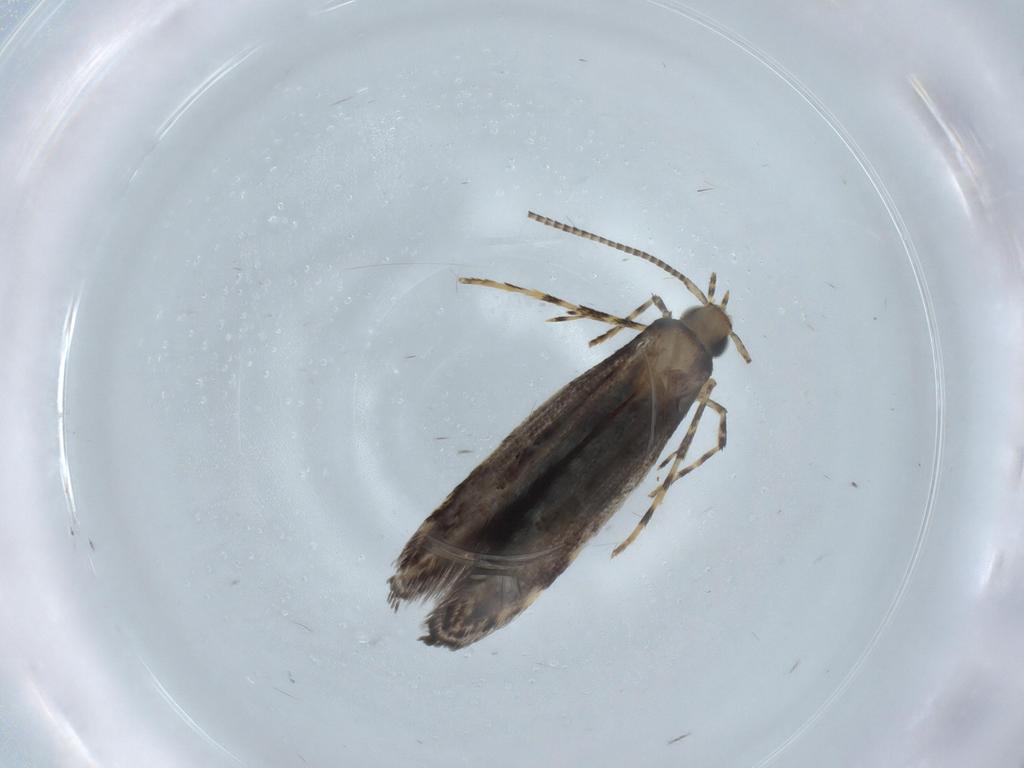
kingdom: Animalia
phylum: Arthropoda
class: Insecta
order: Lepidoptera
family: Gracillariidae
